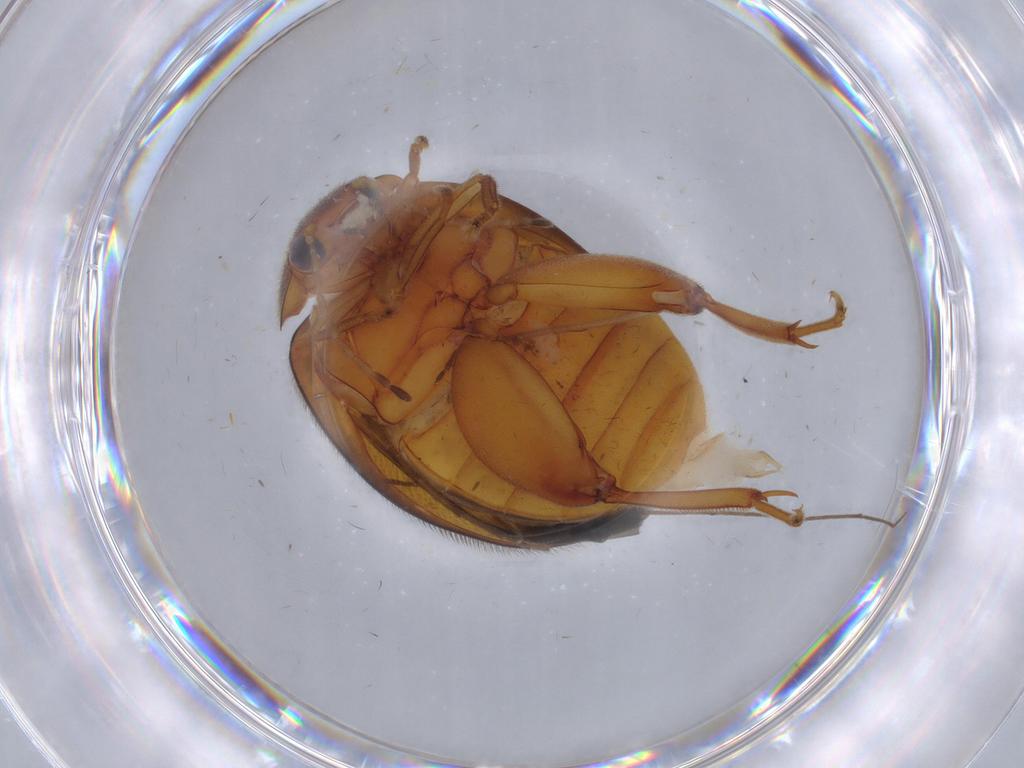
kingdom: Animalia
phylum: Arthropoda
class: Insecta
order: Coleoptera
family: Scirtidae
